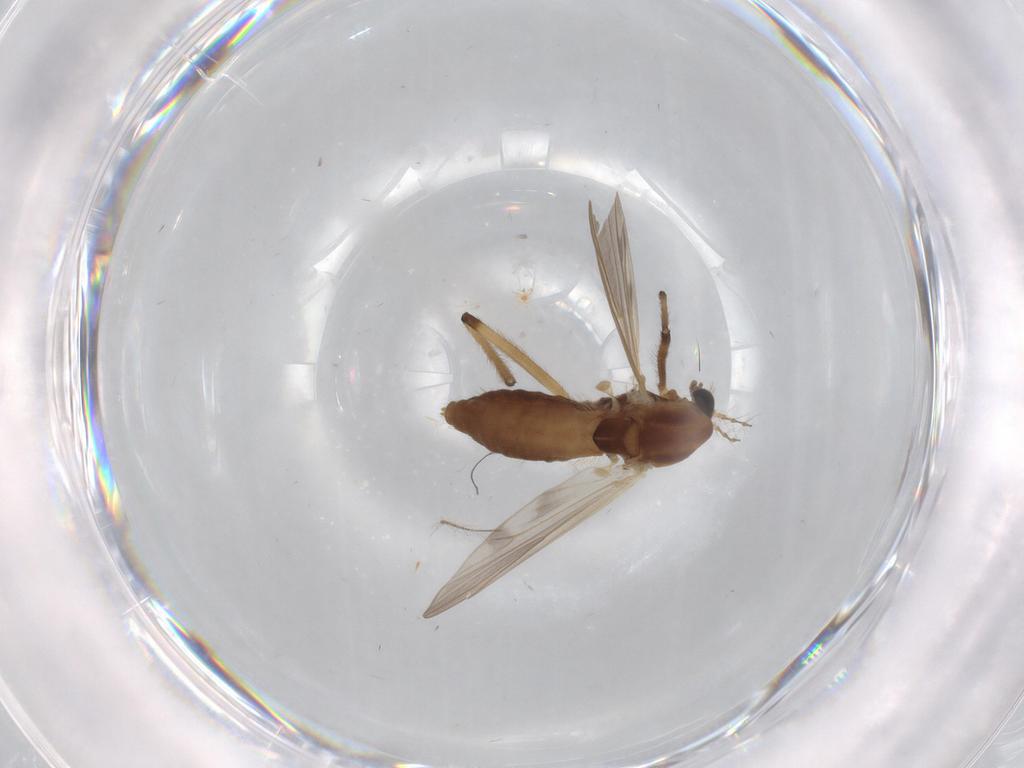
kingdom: Animalia
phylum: Arthropoda
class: Insecta
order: Diptera
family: Chironomidae
